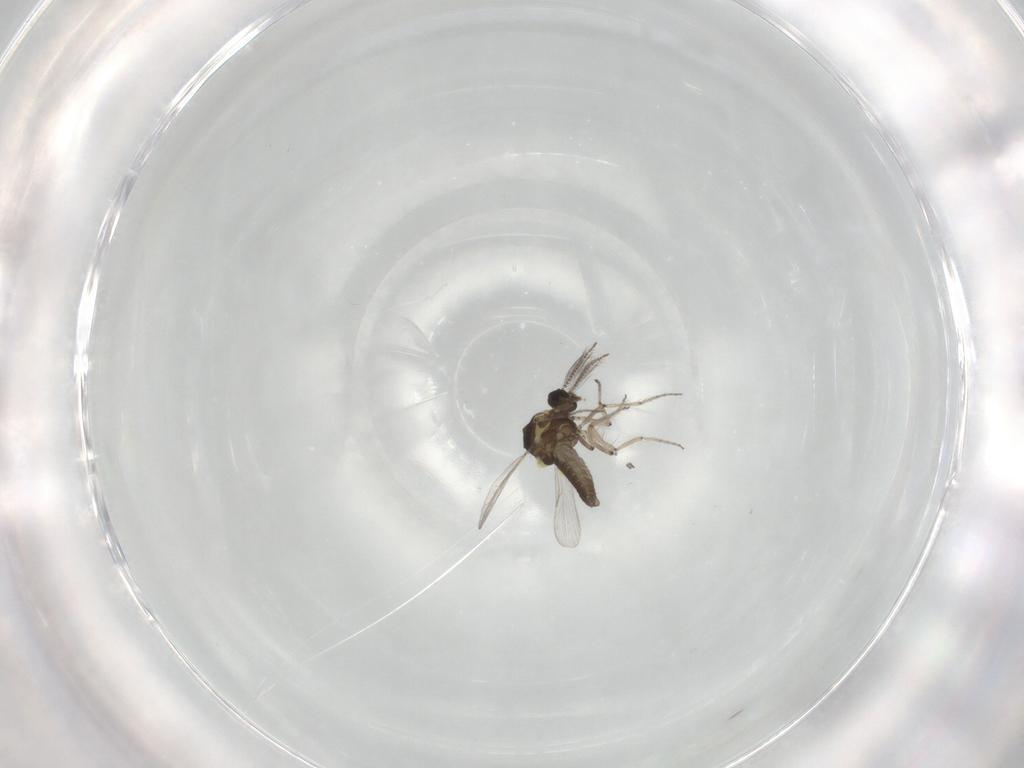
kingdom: Animalia
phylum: Arthropoda
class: Insecta
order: Diptera
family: Ceratopogonidae
